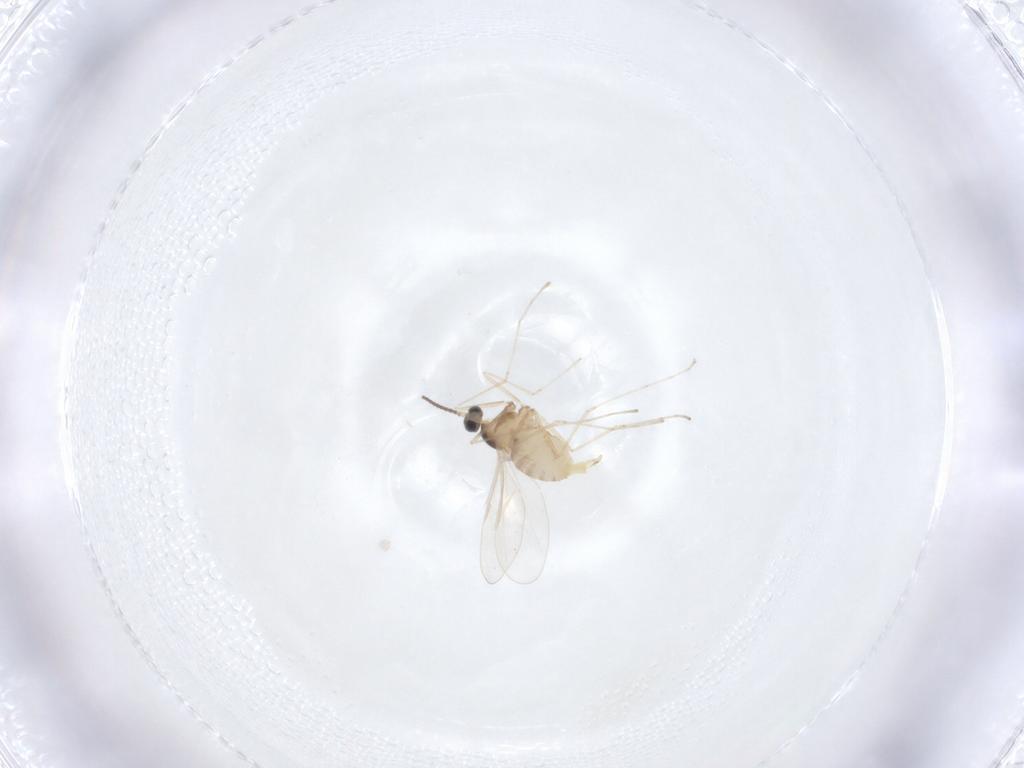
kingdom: Animalia
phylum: Arthropoda
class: Insecta
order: Diptera
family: Cecidomyiidae
